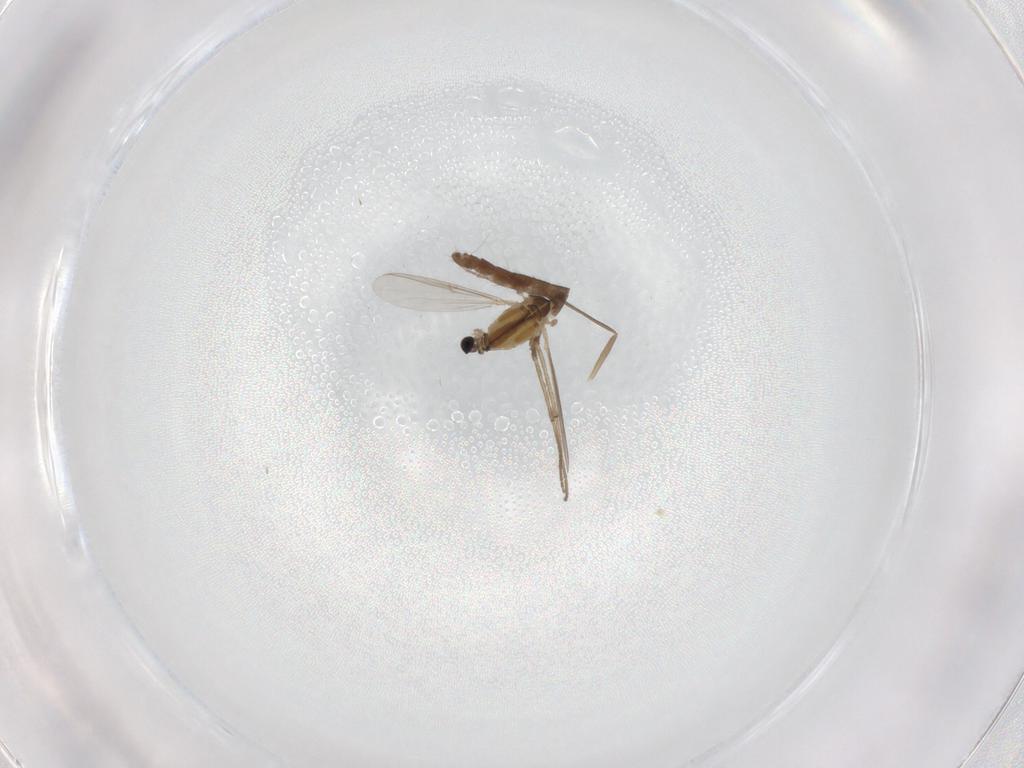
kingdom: Animalia
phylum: Arthropoda
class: Insecta
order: Diptera
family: Chironomidae
